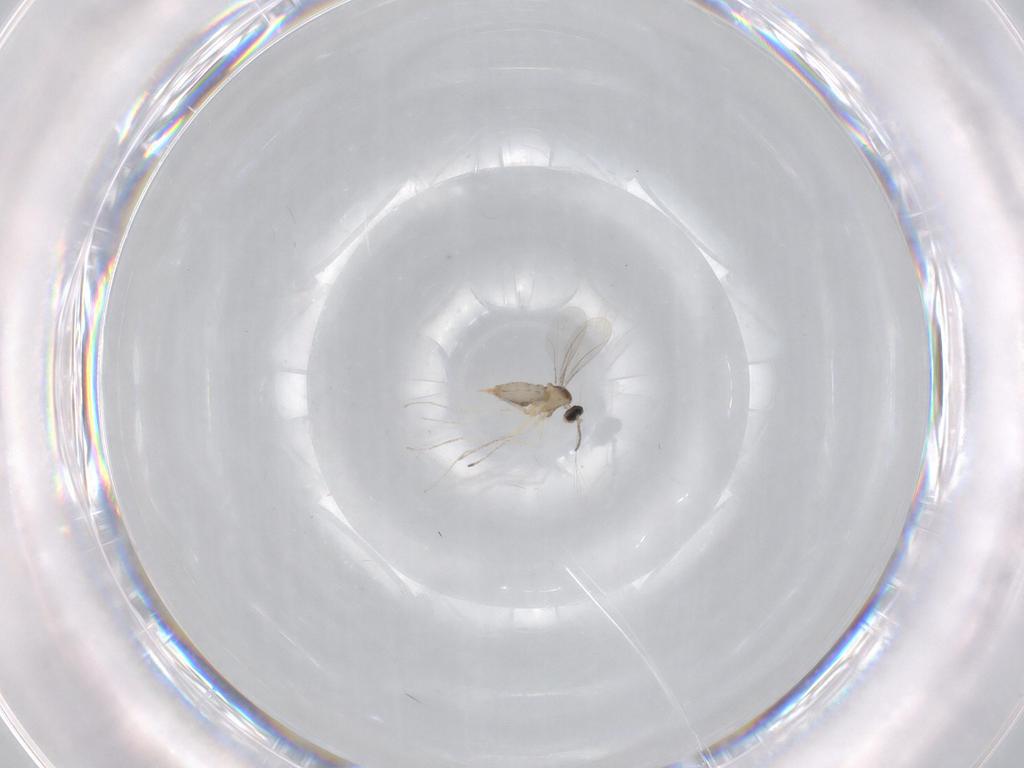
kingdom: Animalia
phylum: Arthropoda
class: Insecta
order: Diptera
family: Cecidomyiidae
